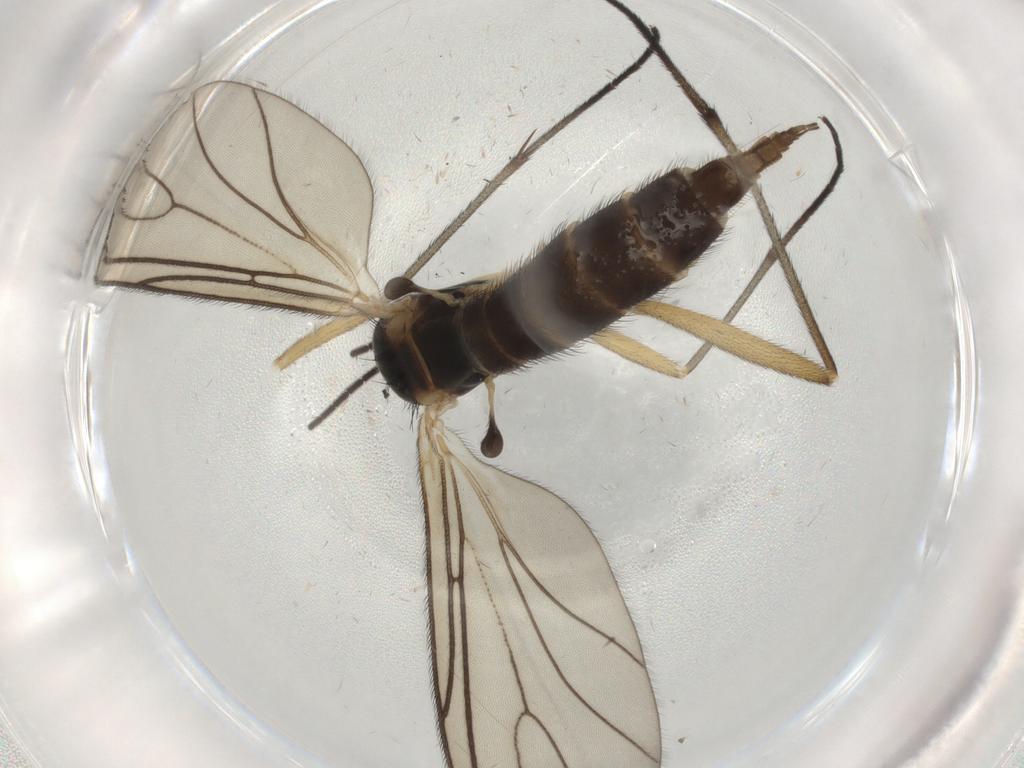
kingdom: Animalia
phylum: Arthropoda
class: Insecta
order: Diptera
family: Sciaridae
